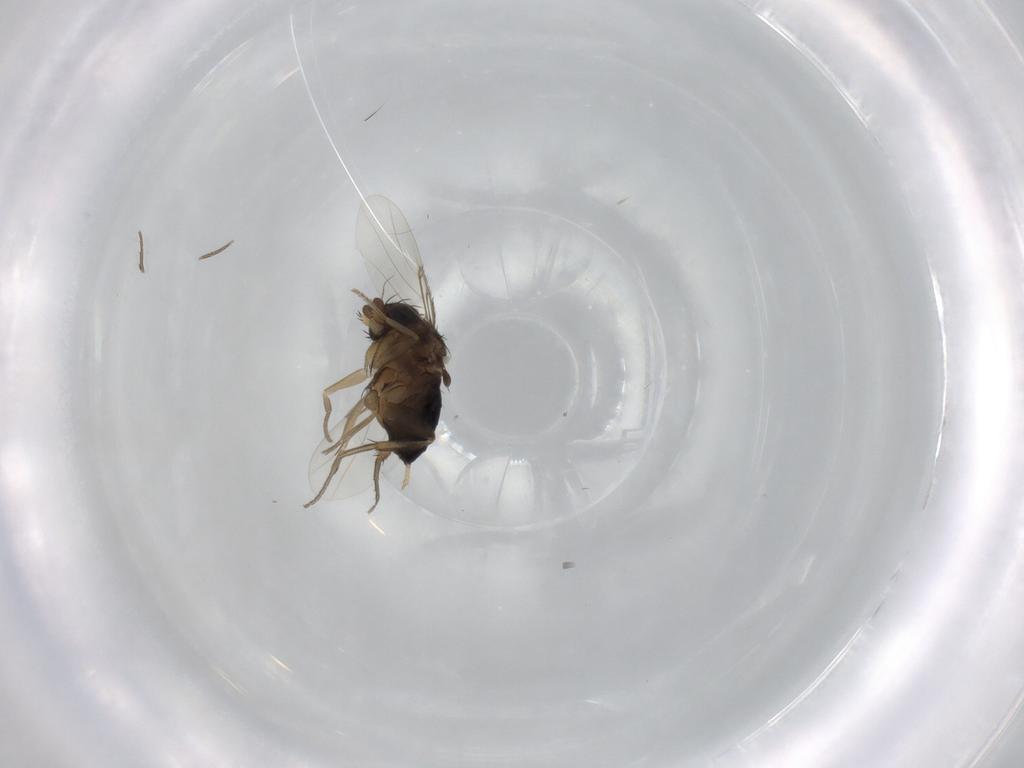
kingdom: Animalia
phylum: Arthropoda
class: Insecta
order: Diptera
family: Phoridae
